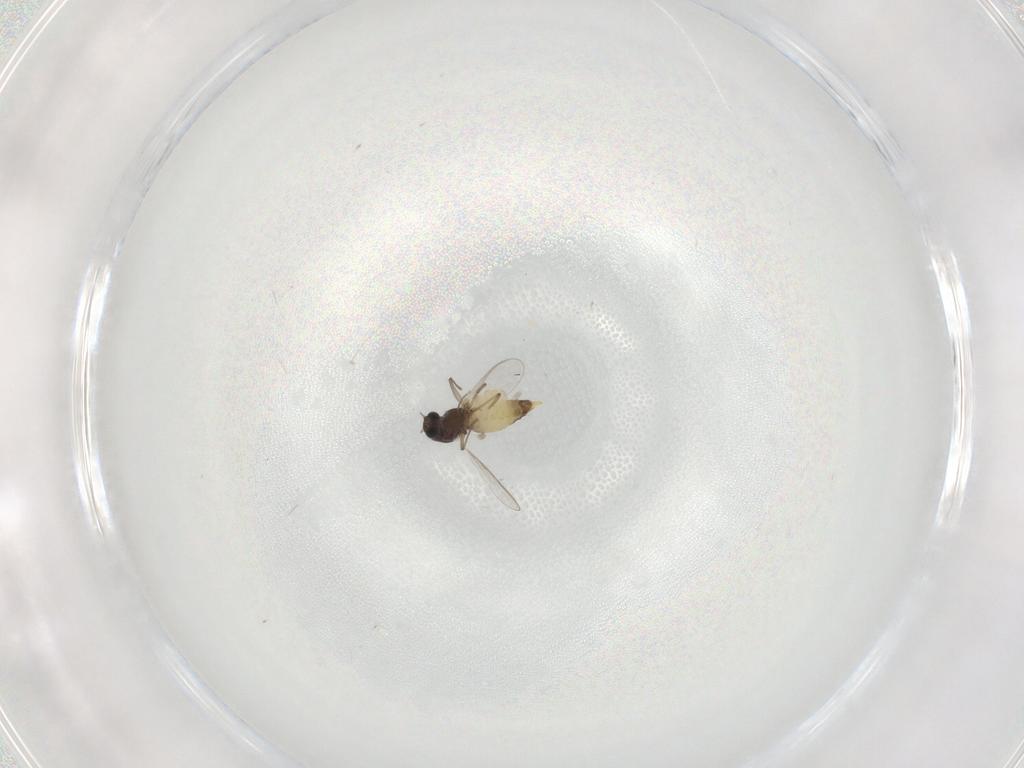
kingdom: Animalia
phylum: Arthropoda
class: Insecta
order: Diptera
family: Chironomidae
